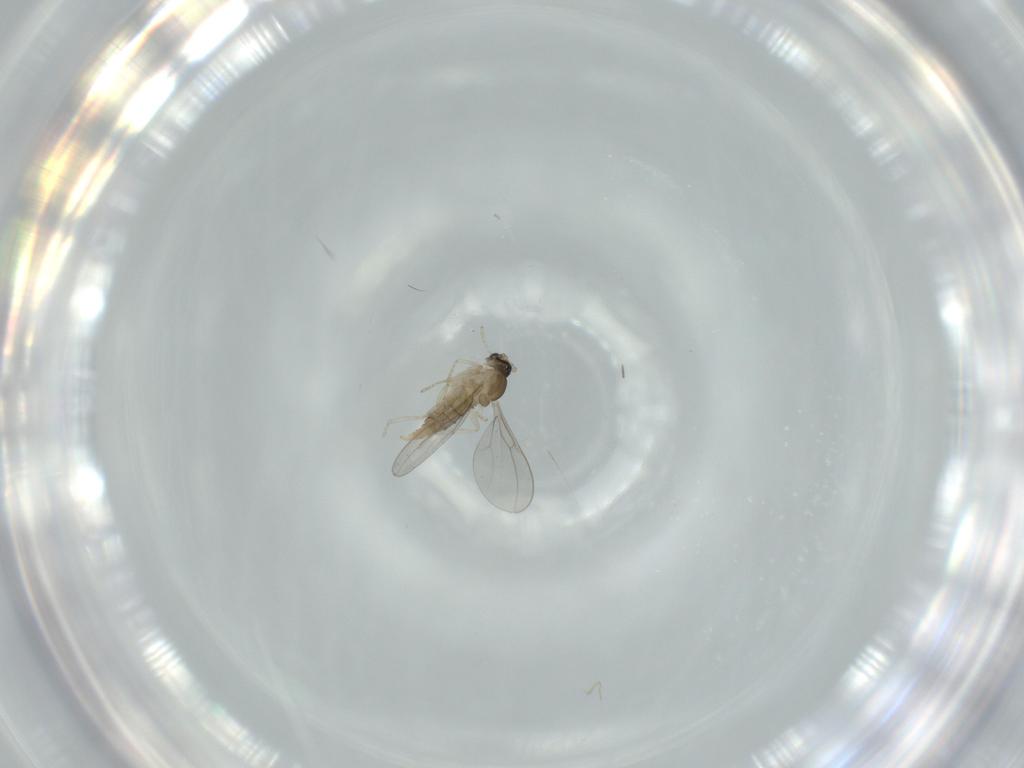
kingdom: Animalia
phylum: Arthropoda
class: Insecta
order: Diptera
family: Cecidomyiidae
